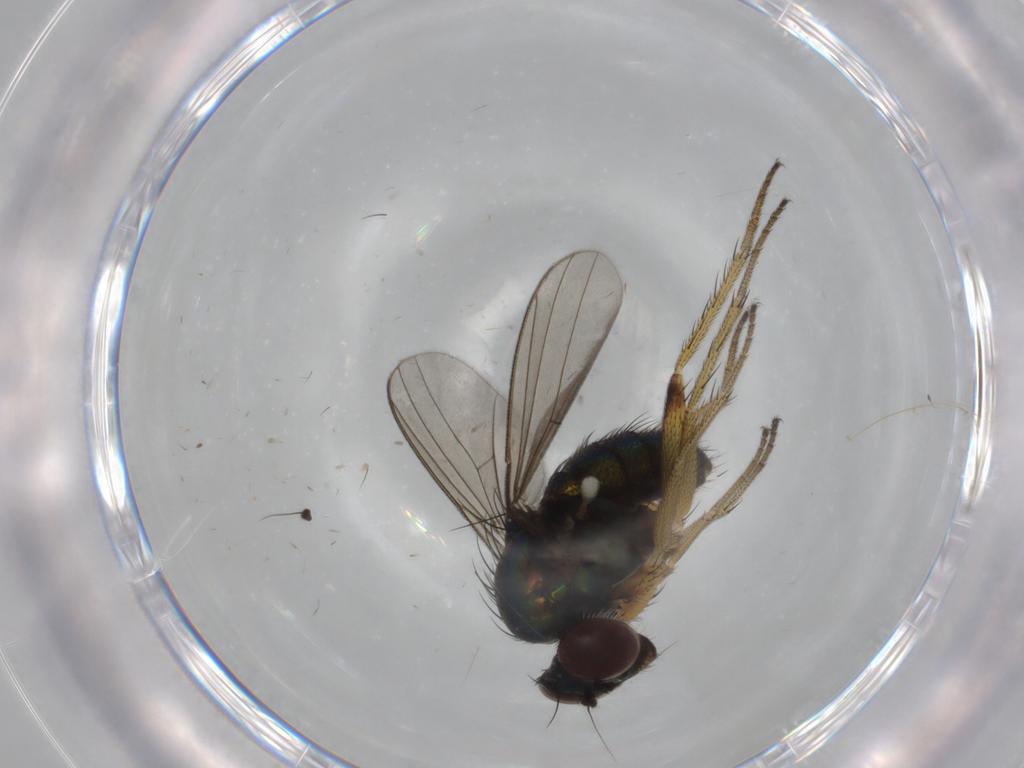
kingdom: Animalia
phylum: Arthropoda
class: Insecta
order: Diptera
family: Dolichopodidae
